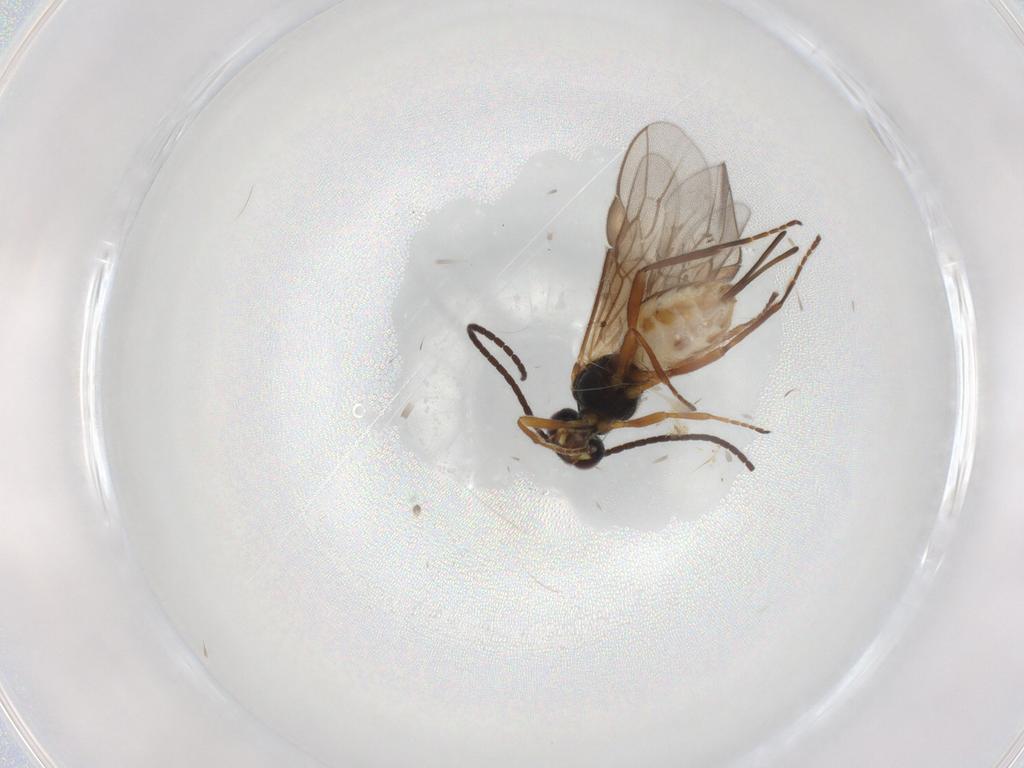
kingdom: Animalia
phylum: Arthropoda
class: Insecta
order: Hymenoptera
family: Braconidae
